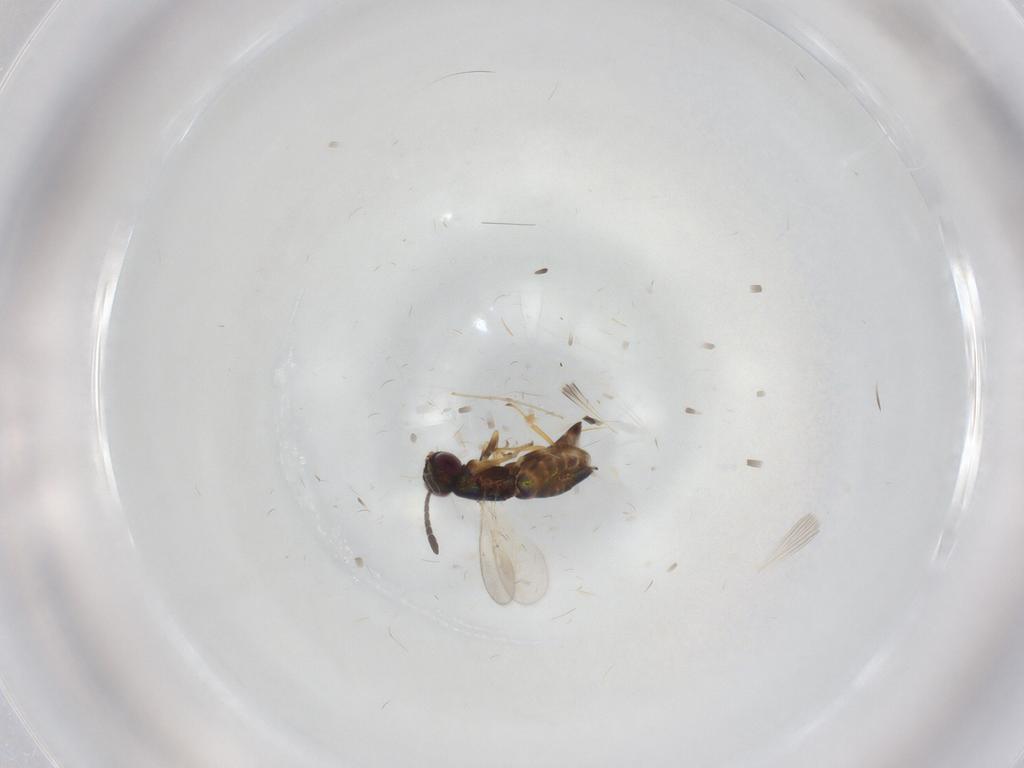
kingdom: Animalia
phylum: Arthropoda
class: Insecta
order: Hymenoptera
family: Encyrtidae
